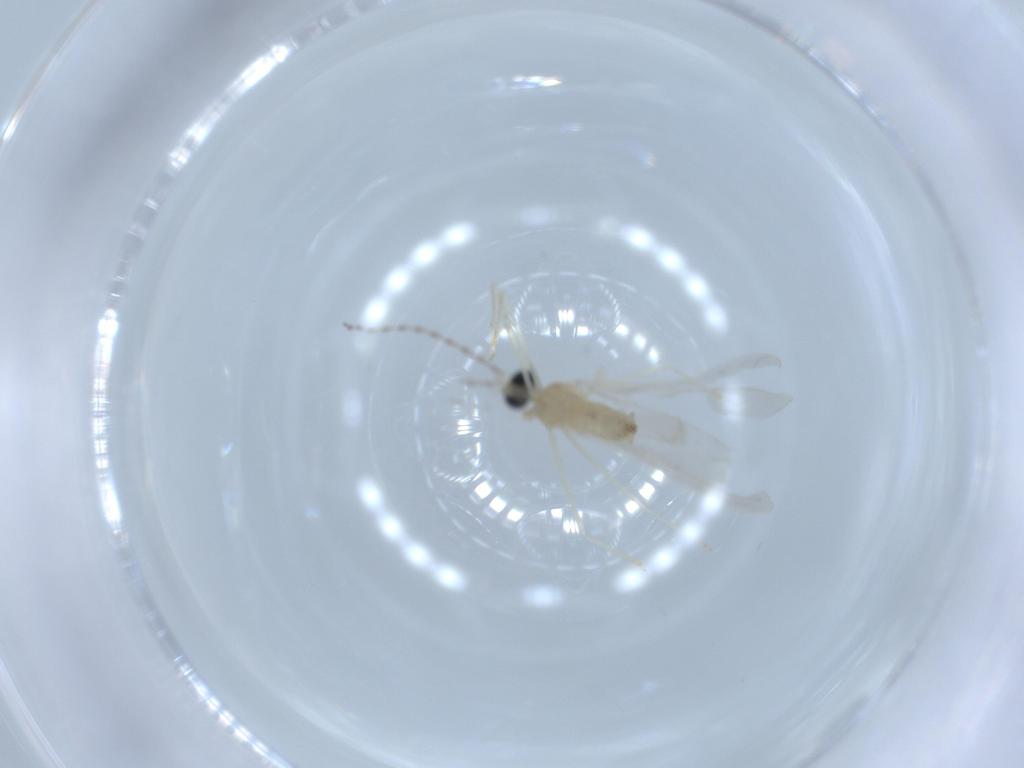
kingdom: Animalia
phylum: Arthropoda
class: Insecta
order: Diptera
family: Cecidomyiidae
